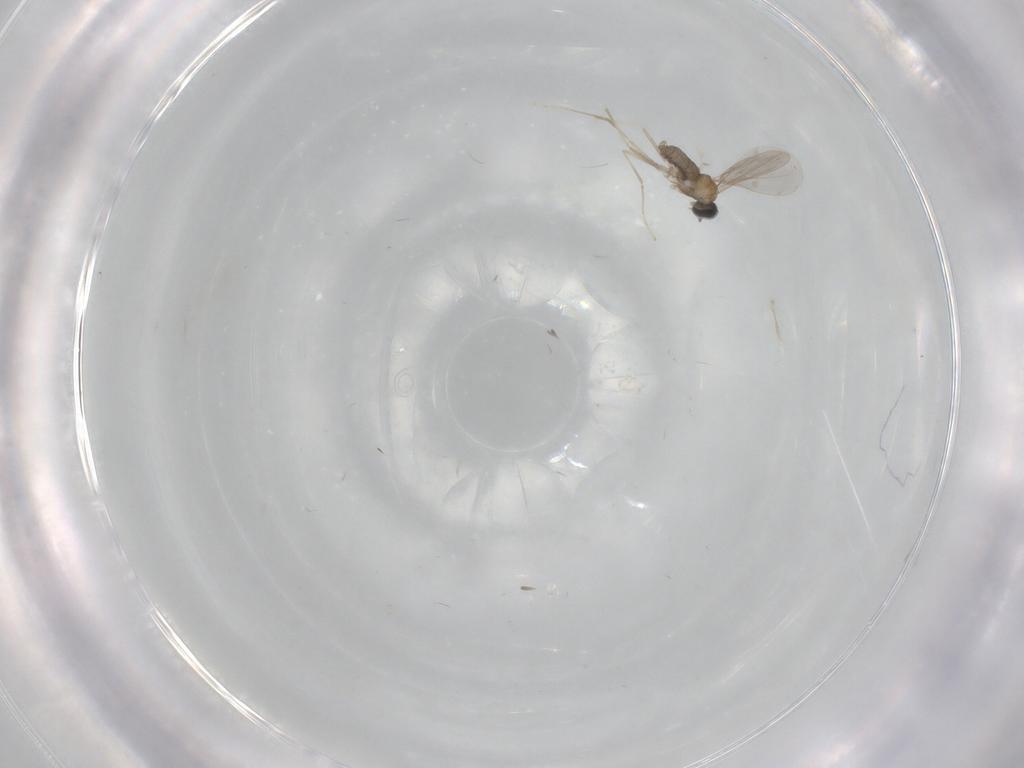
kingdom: Animalia
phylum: Arthropoda
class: Insecta
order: Diptera
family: Cecidomyiidae
